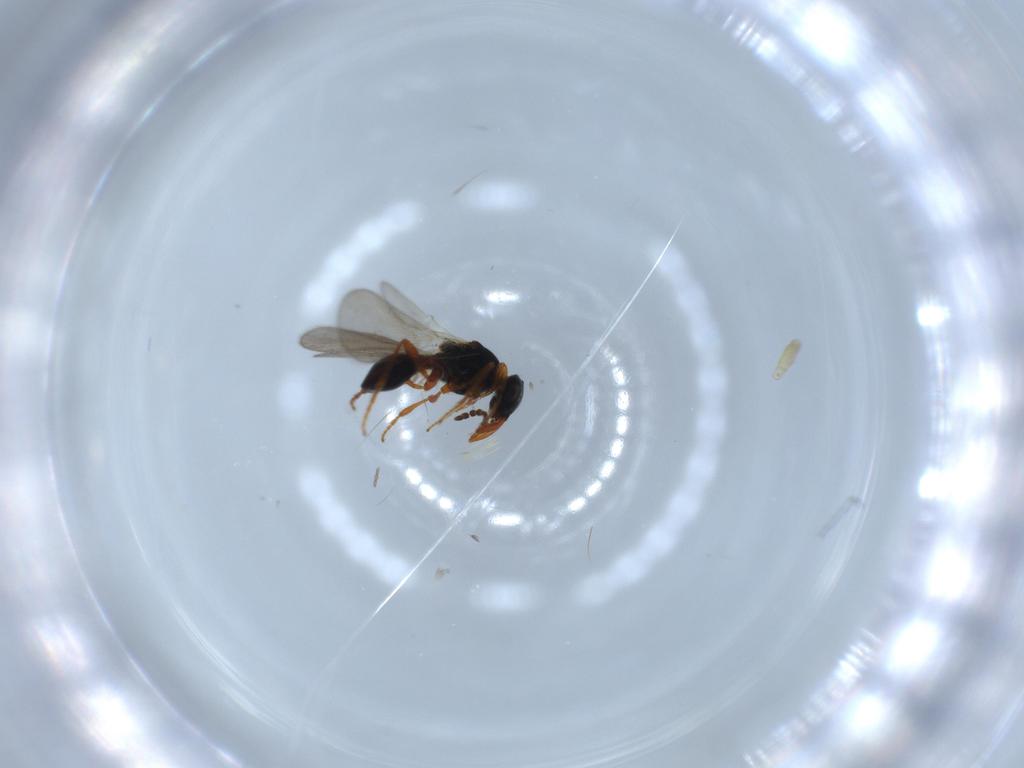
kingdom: Animalia
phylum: Arthropoda
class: Insecta
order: Hymenoptera
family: Platygastridae
